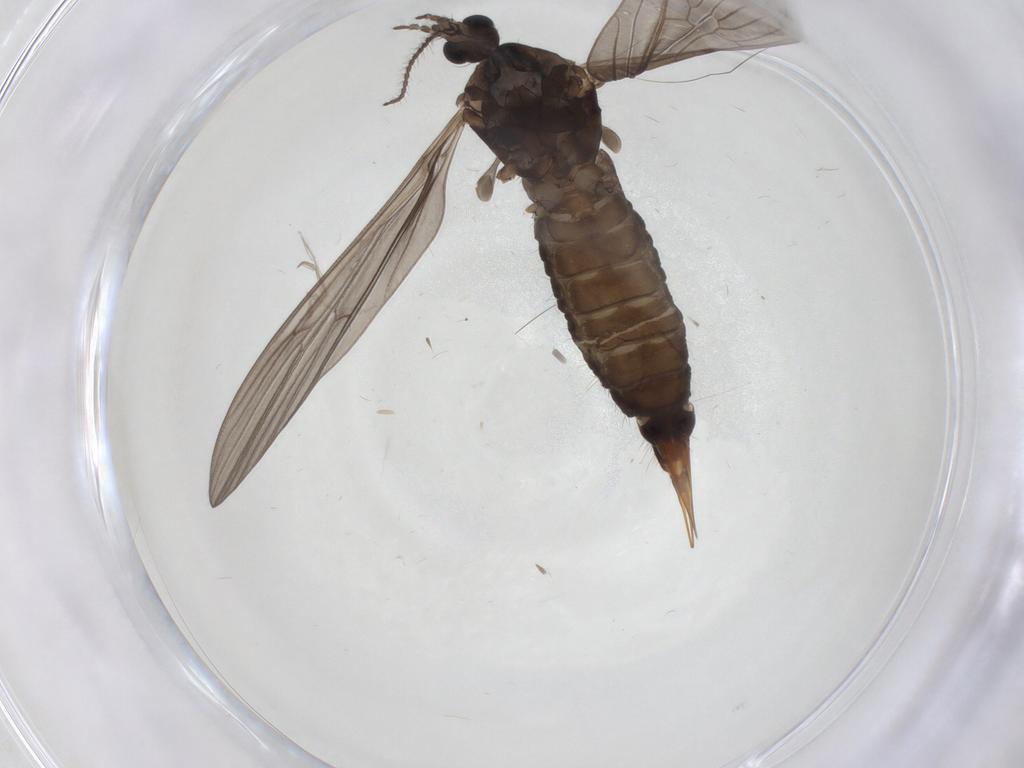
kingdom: Animalia
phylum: Arthropoda
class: Insecta
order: Diptera
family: Limoniidae
